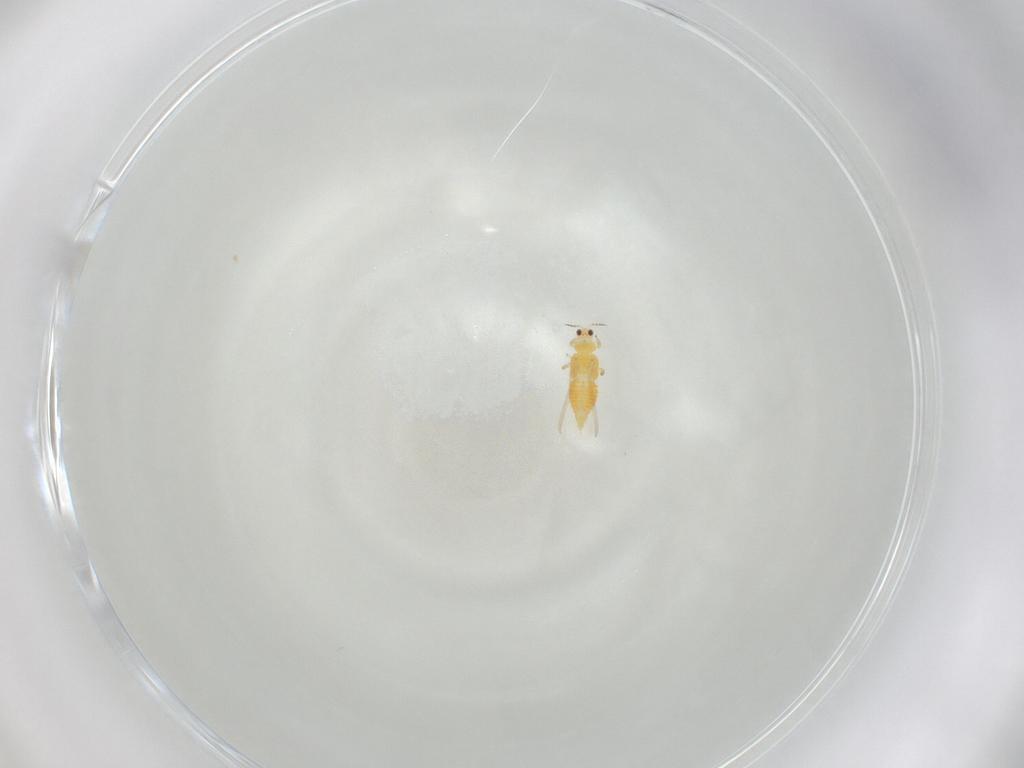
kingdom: Animalia
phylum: Arthropoda
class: Insecta
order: Thysanoptera
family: Thripidae
